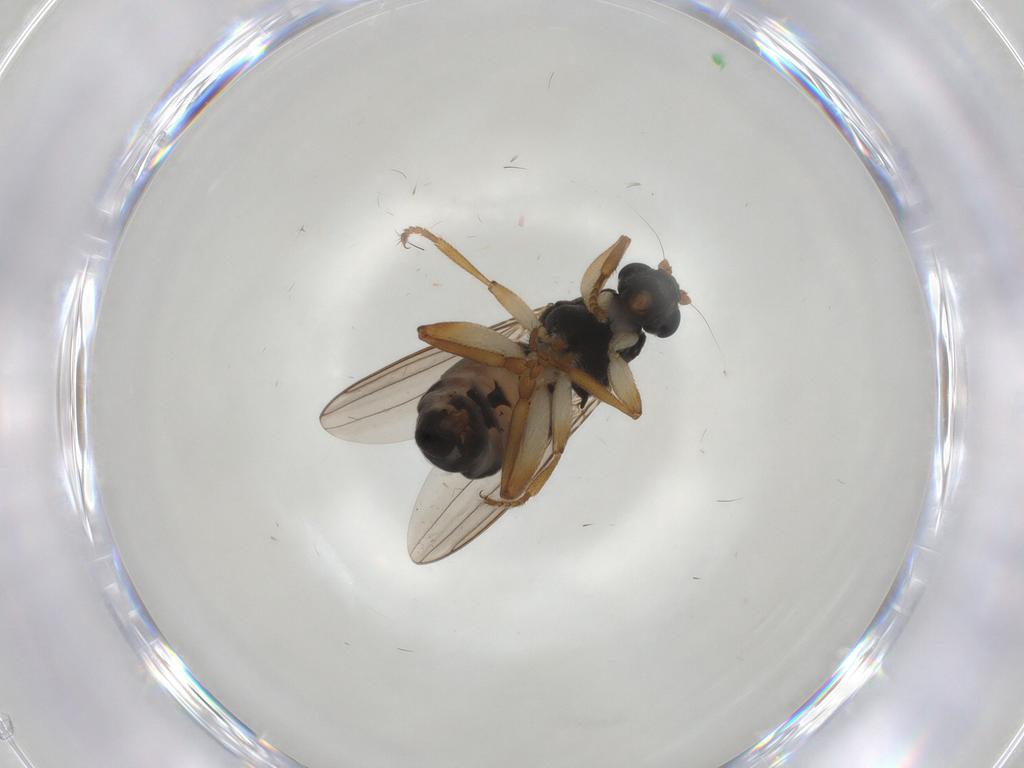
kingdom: Animalia
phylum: Arthropoda
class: Insecta
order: Diptera
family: Sphaeroceridae
